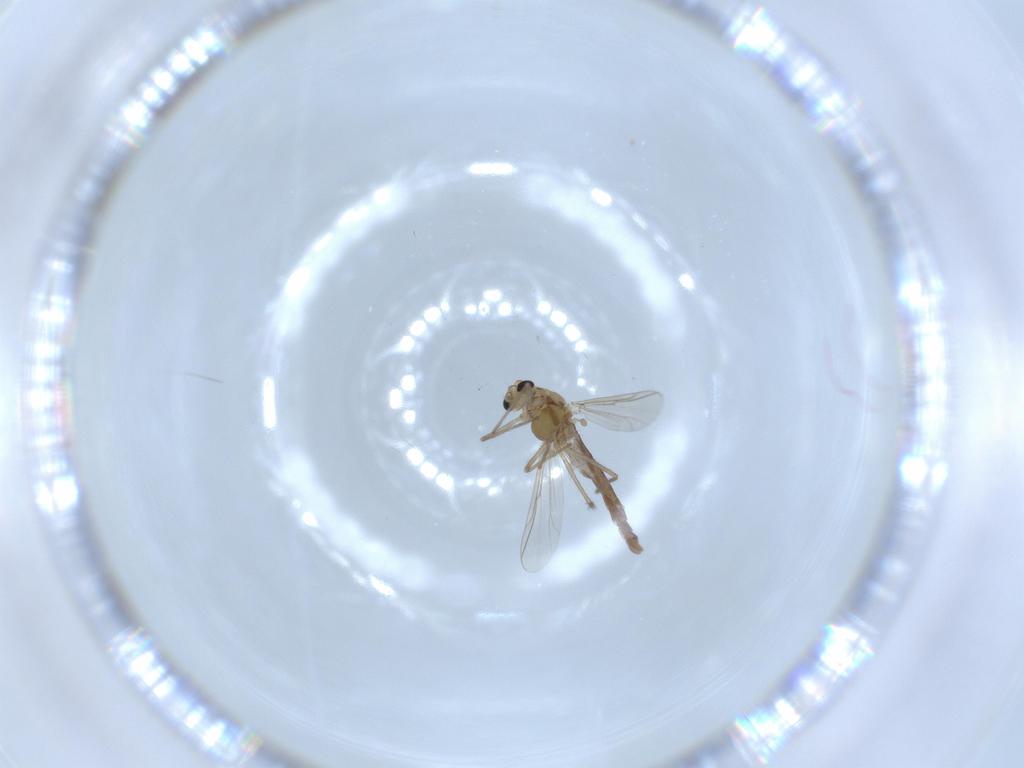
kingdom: Animalia
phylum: Arthropoda
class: Insecta
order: Diptera
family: Chironomidae
